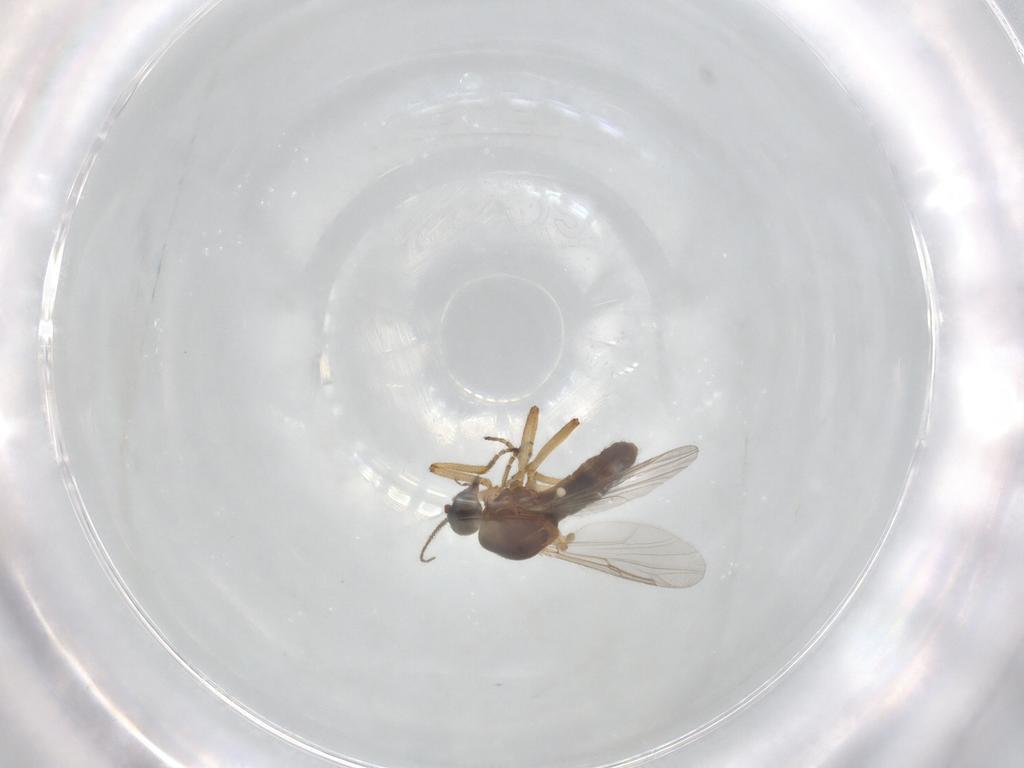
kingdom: Animalia
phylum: Arthropoda
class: Insecta
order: Diptera
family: Ceratopogonidae
